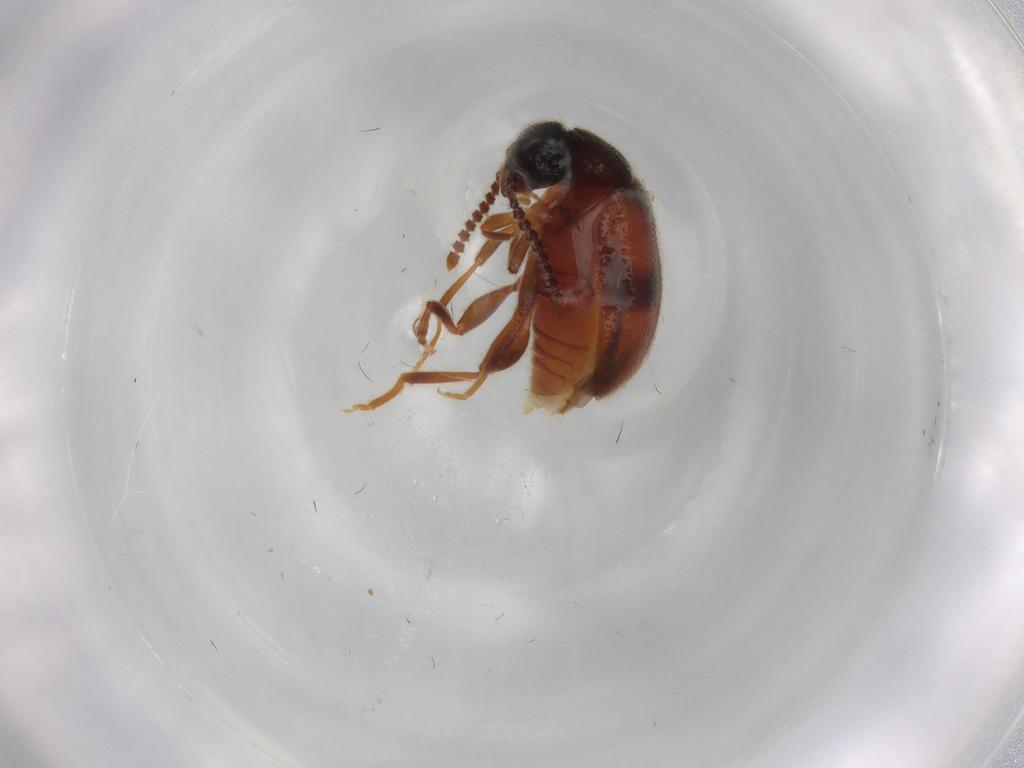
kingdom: Animalia
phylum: Arthropoda
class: Insecta
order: Coleoptera
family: Aderidae
